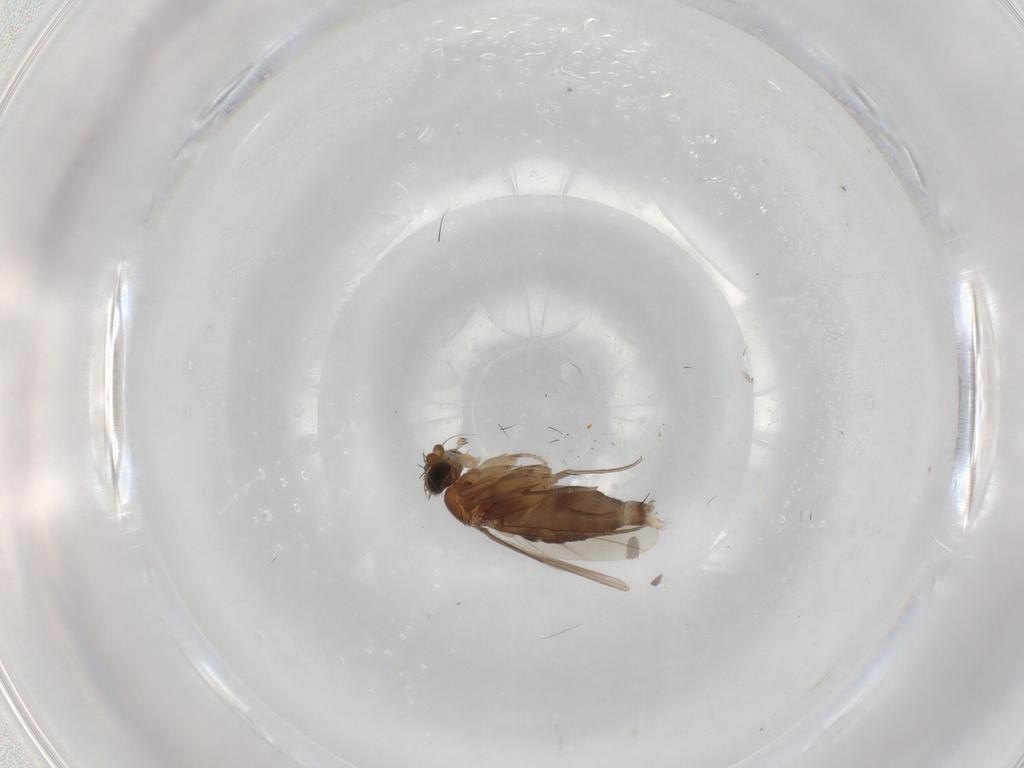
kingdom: Animalia
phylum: Arthropoda
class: Insecta
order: Diptera
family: Phoridae
